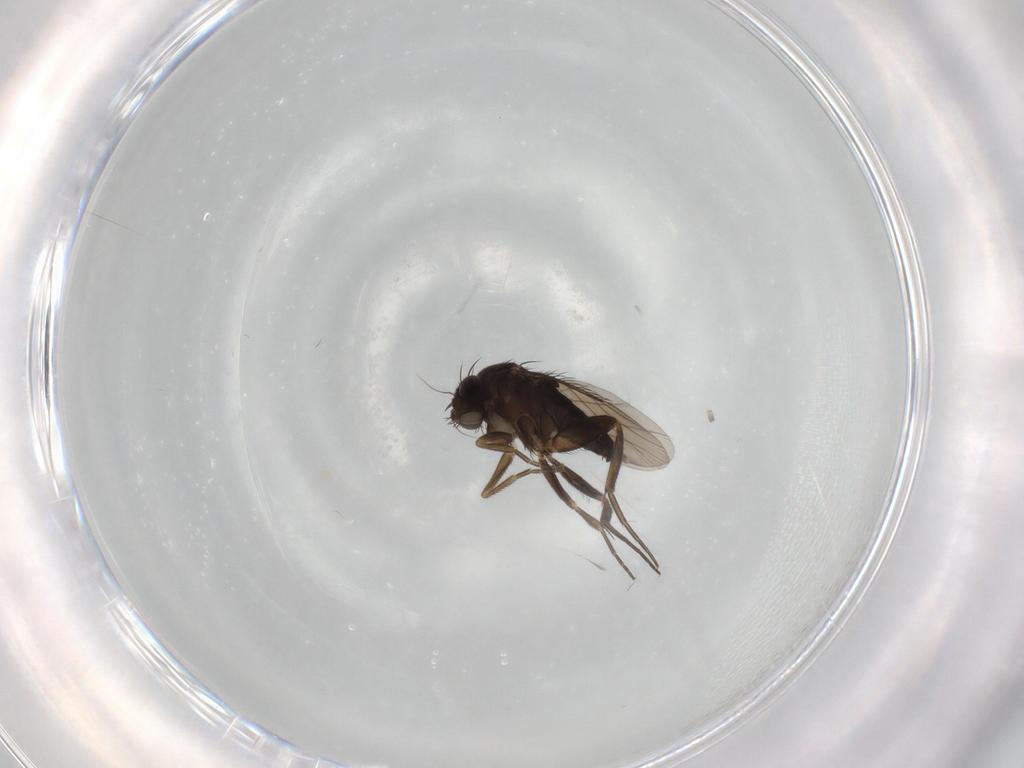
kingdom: Animalia
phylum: Arthropoda
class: Insecta
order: Diptera
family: Phoridae
